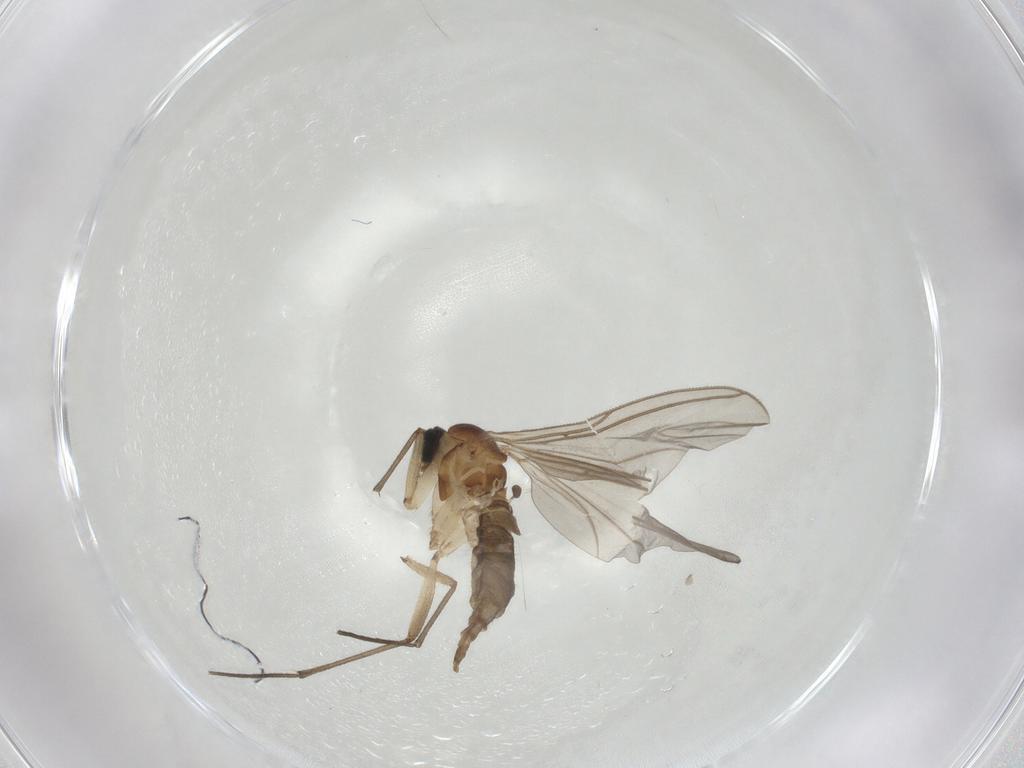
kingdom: Animalia
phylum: Arthropoda
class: Insecta
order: Diptera
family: Sciaridae
